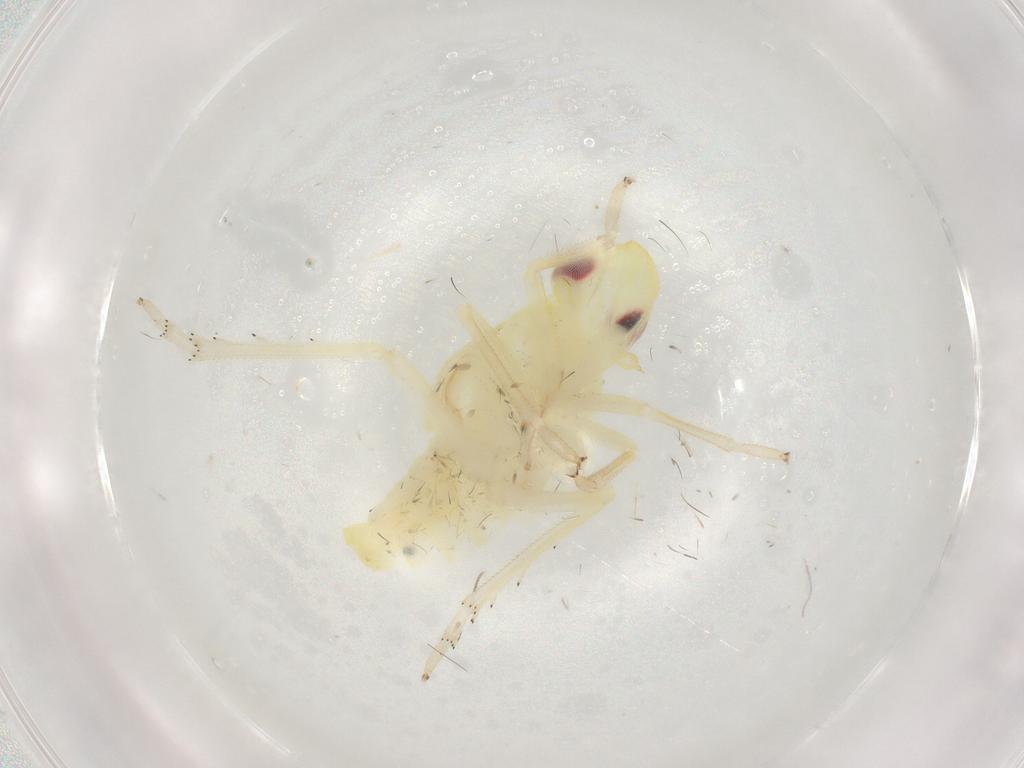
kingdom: Animalia
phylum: Arthropoda
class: Insecta
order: Hemiptera
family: Tropiduchidae
